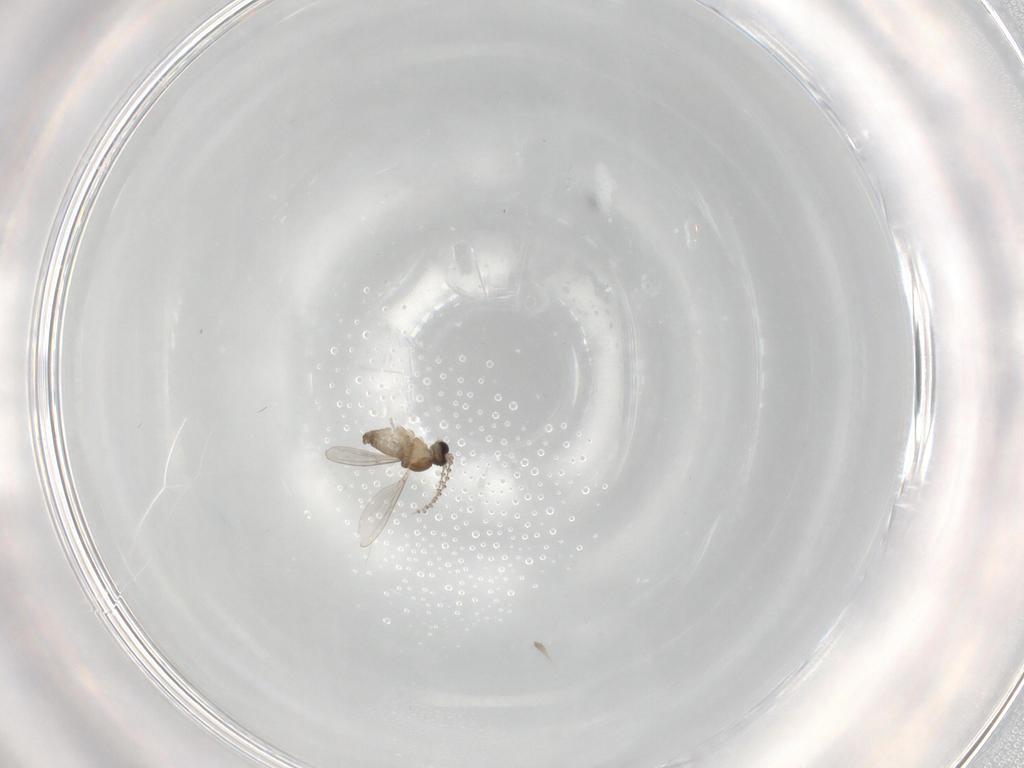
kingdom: Animalia
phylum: Arthropoda
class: Insecta
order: Diptera
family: Cecidomyiidae
